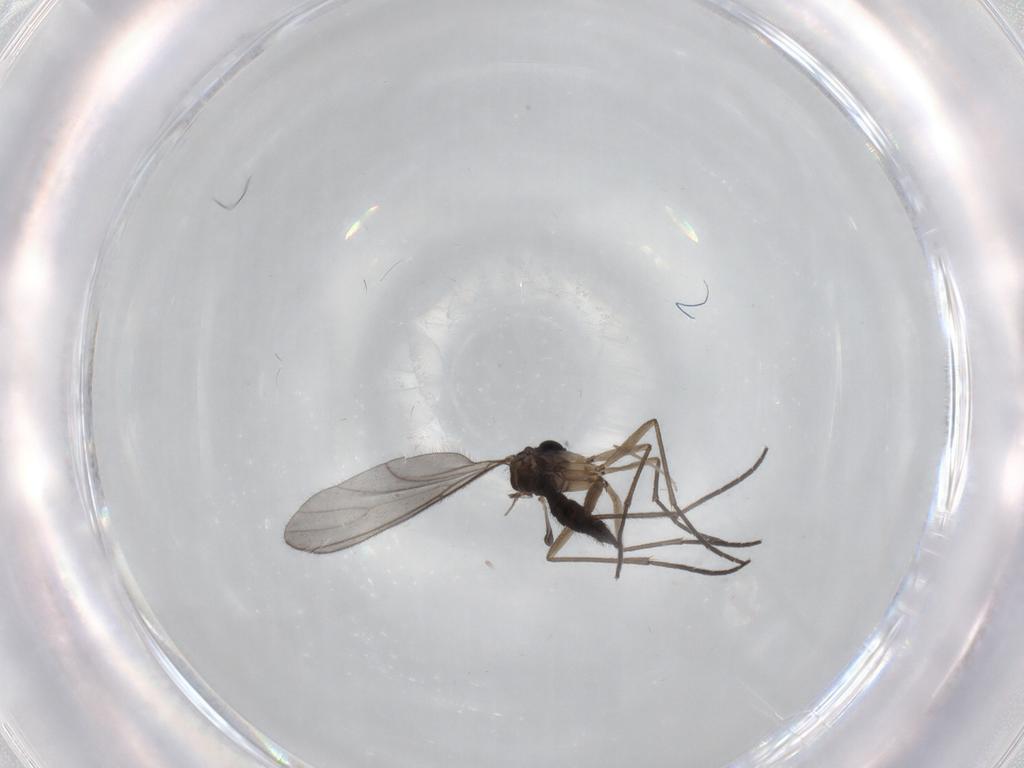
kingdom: Animalia
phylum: Arthropoda
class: Insecta
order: Diptera
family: Sciaridae
